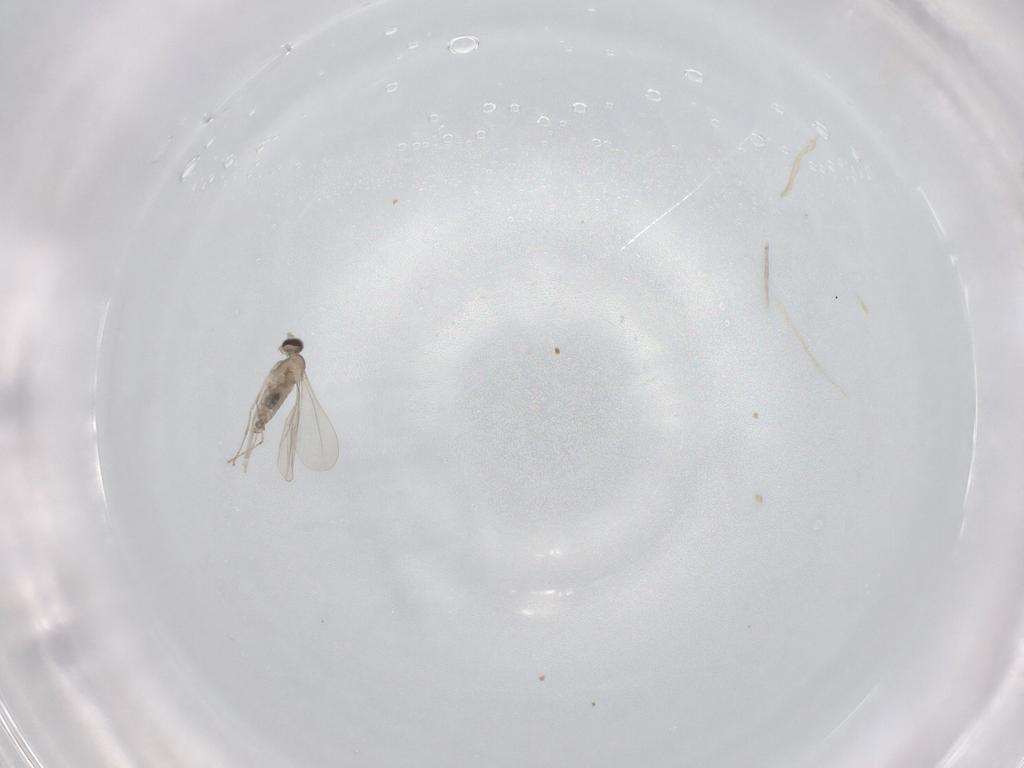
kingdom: Animalia
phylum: Arthropoda
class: Insecta
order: Diptera
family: Cecidomyiidae
